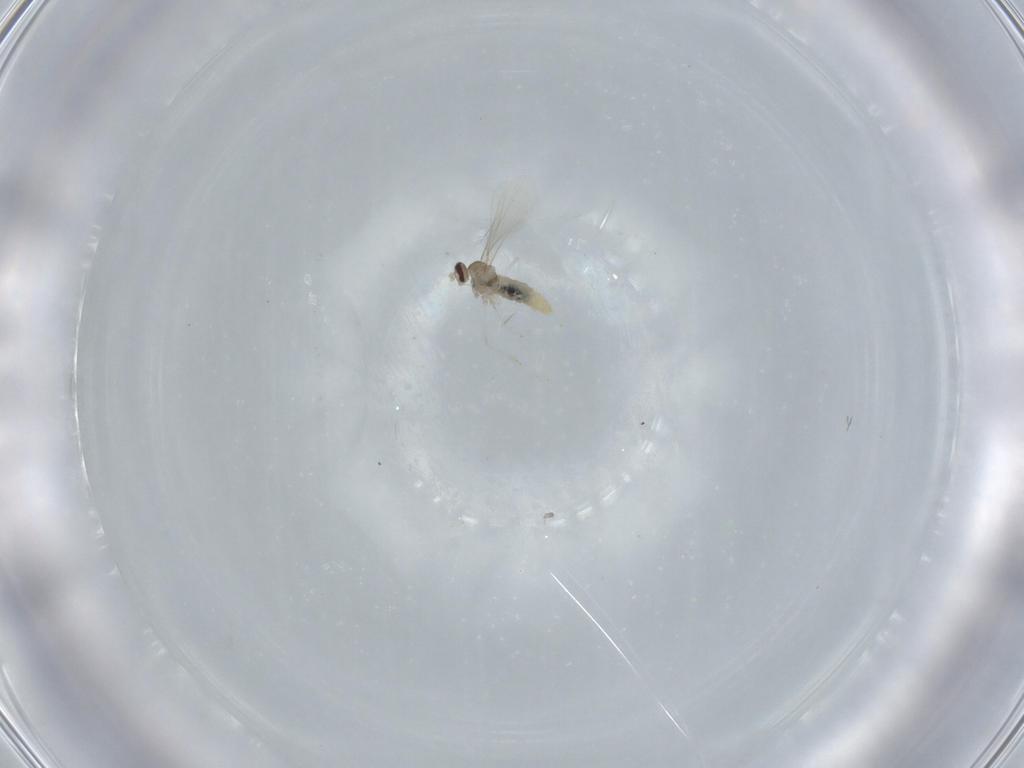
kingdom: Animalia
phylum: Arthropoda
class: Insecta
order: Diptera
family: Cecidomyiidae
